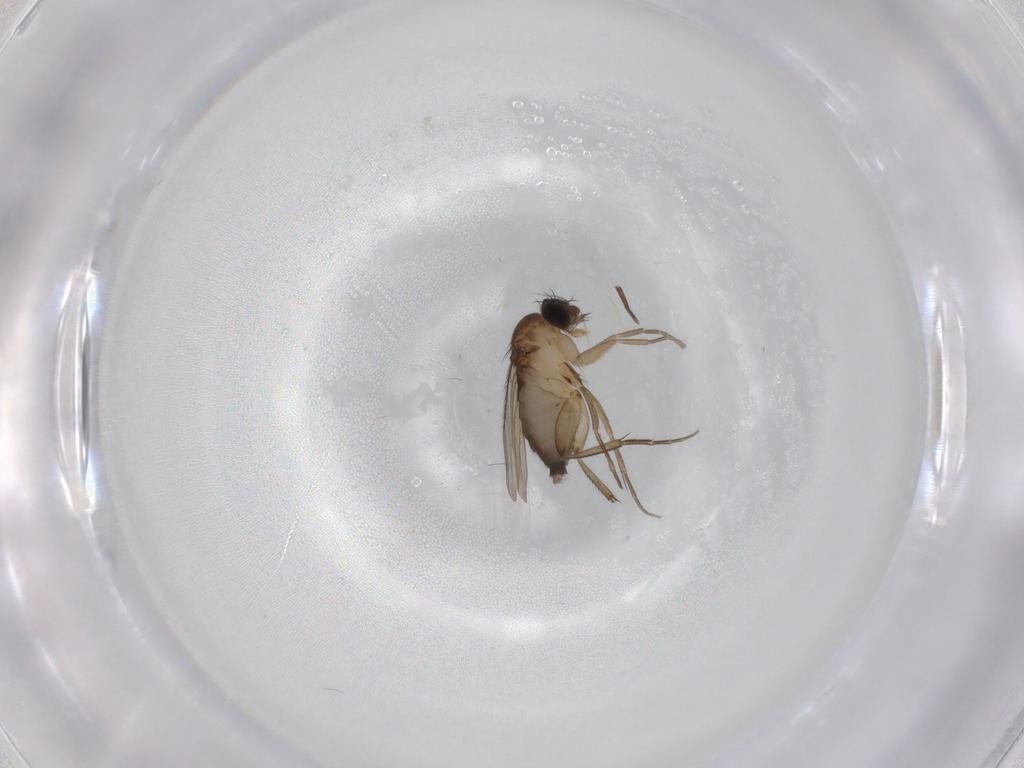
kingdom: Animalia
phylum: Arthropoda
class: Insecta
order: Diptera
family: Phoridae
